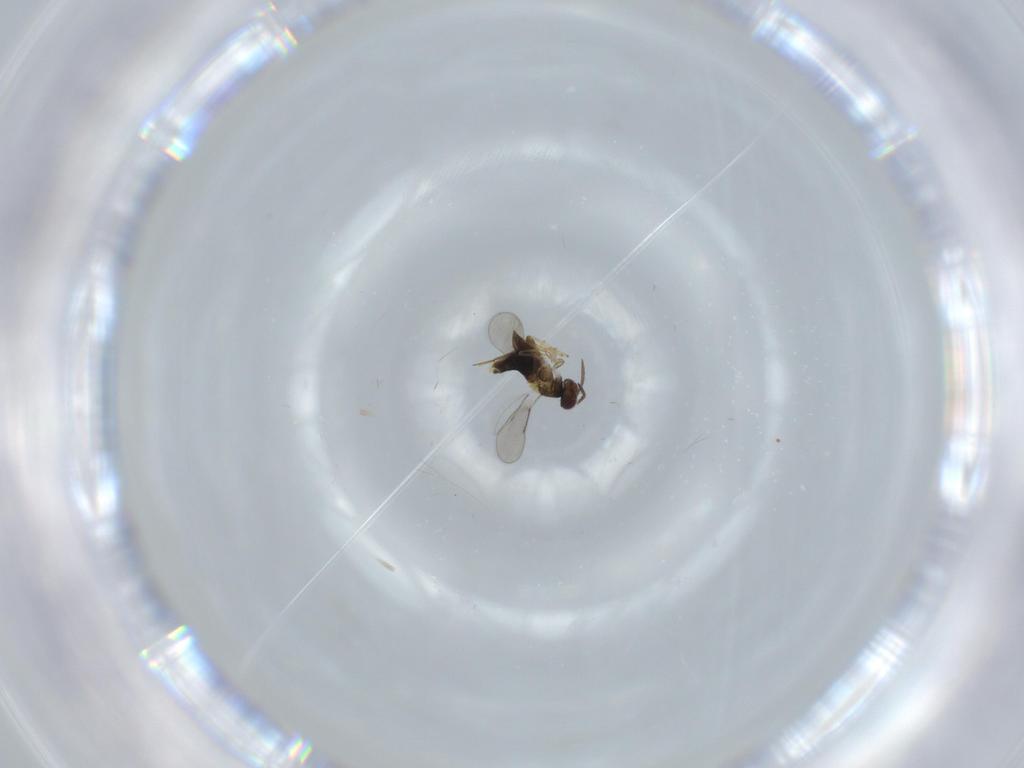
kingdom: Animalia
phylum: Arthropoda
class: Insecta
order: Hymenoptera
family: Aphelinidae
